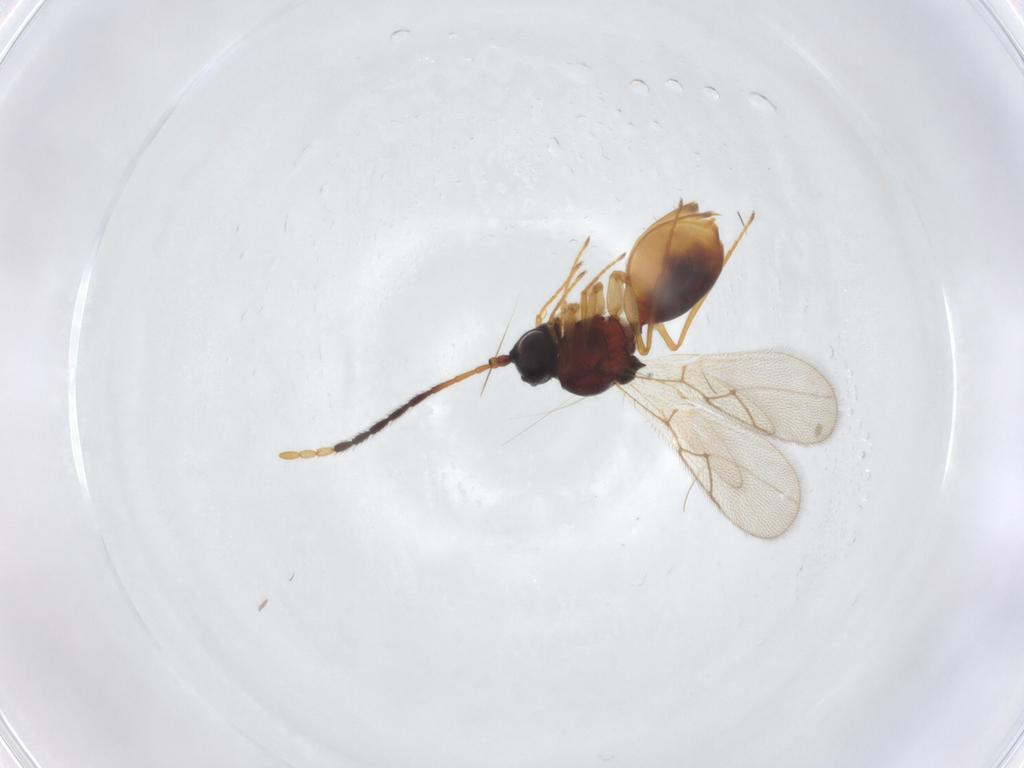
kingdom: Animalia
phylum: Arthropoda
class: Insecta
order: Hymenoptera
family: Figitidae
